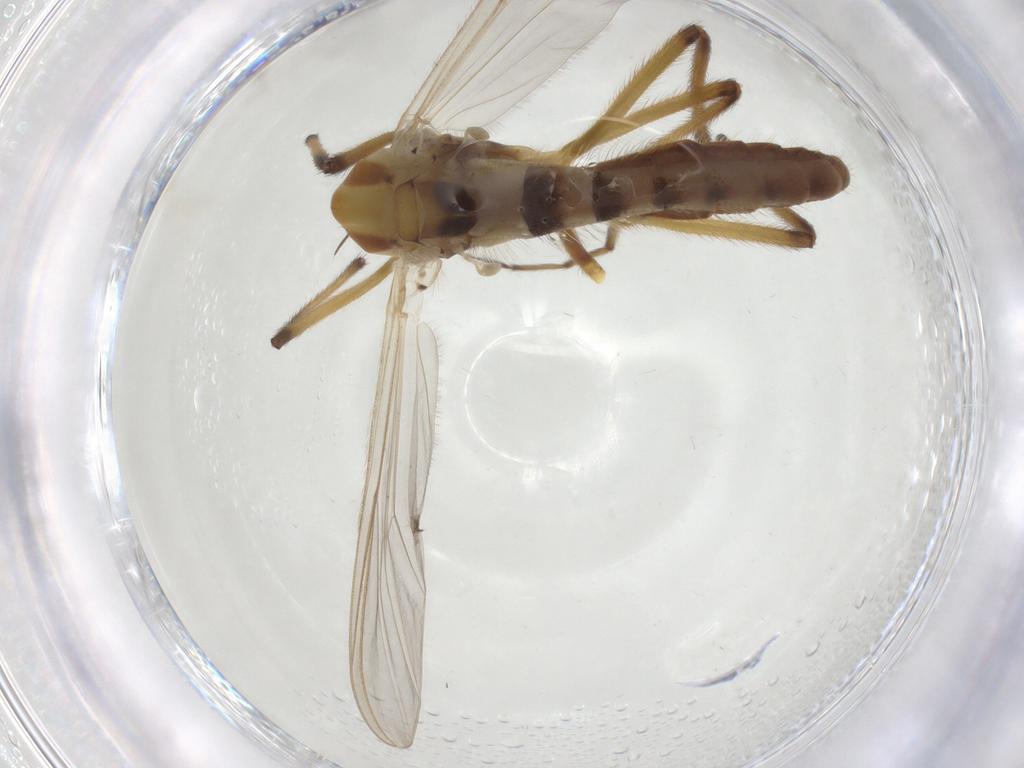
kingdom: Animalia
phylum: Arthropoda
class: Insecta
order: Diptera
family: Chironomidae
